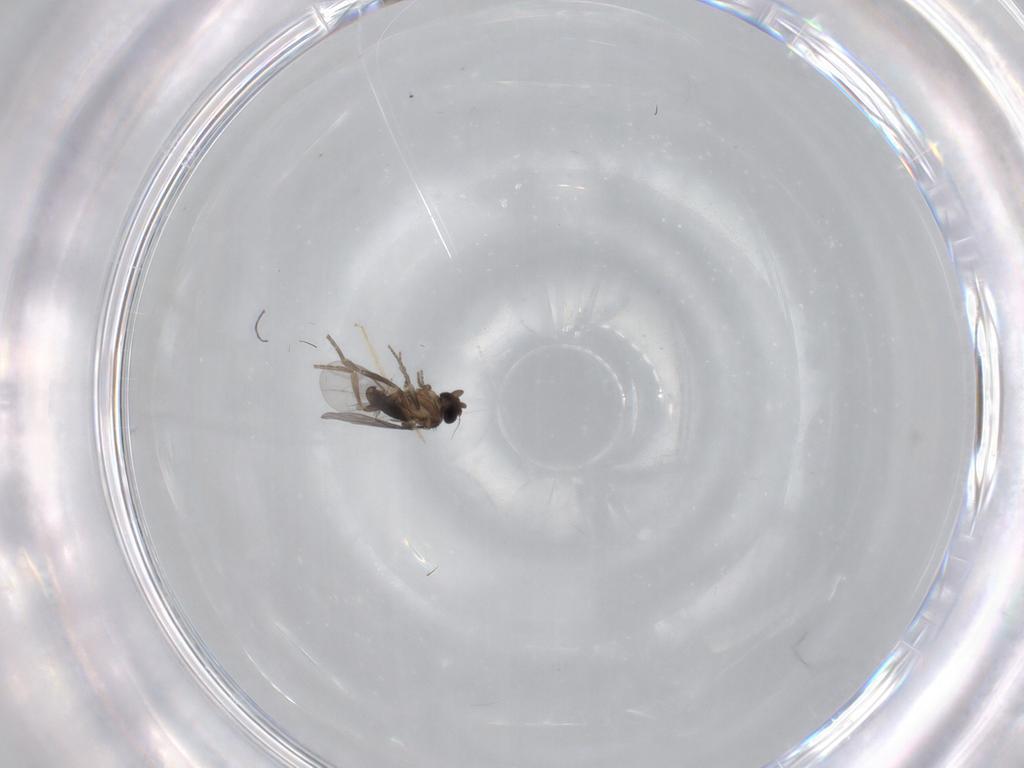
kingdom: Animalia
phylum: Arthropoda
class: Insecta
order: Diptera
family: Chironomidae
